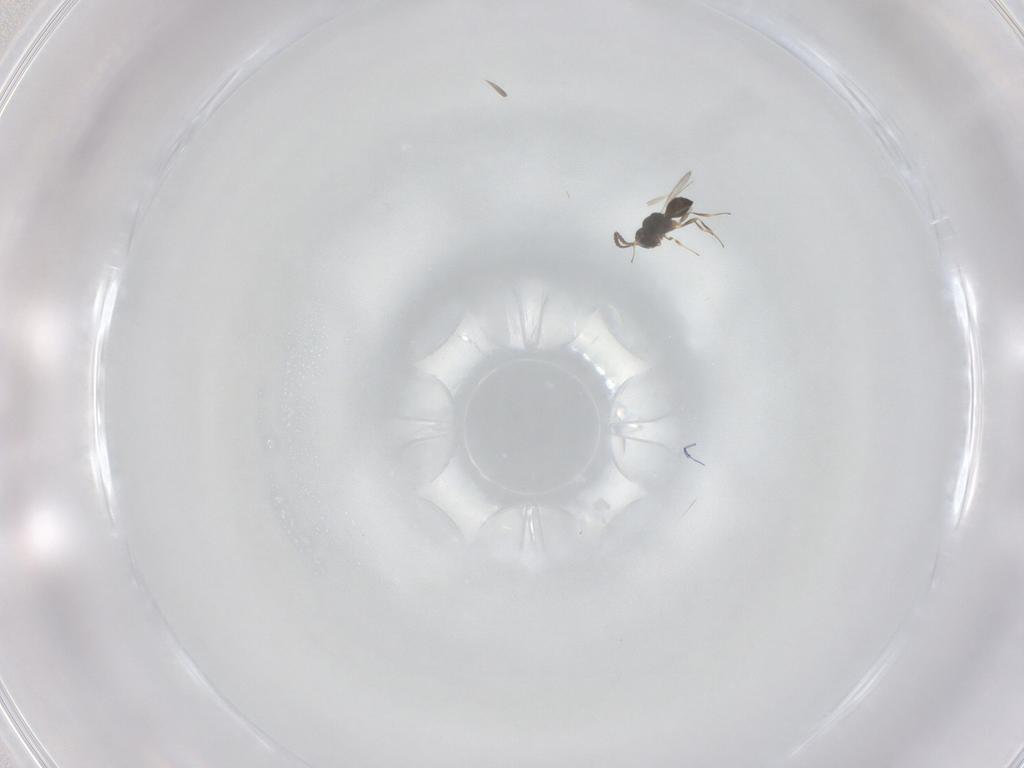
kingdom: Animalia
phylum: Arthropoda
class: Insecta
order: Hymenoptera
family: Scelionidae
